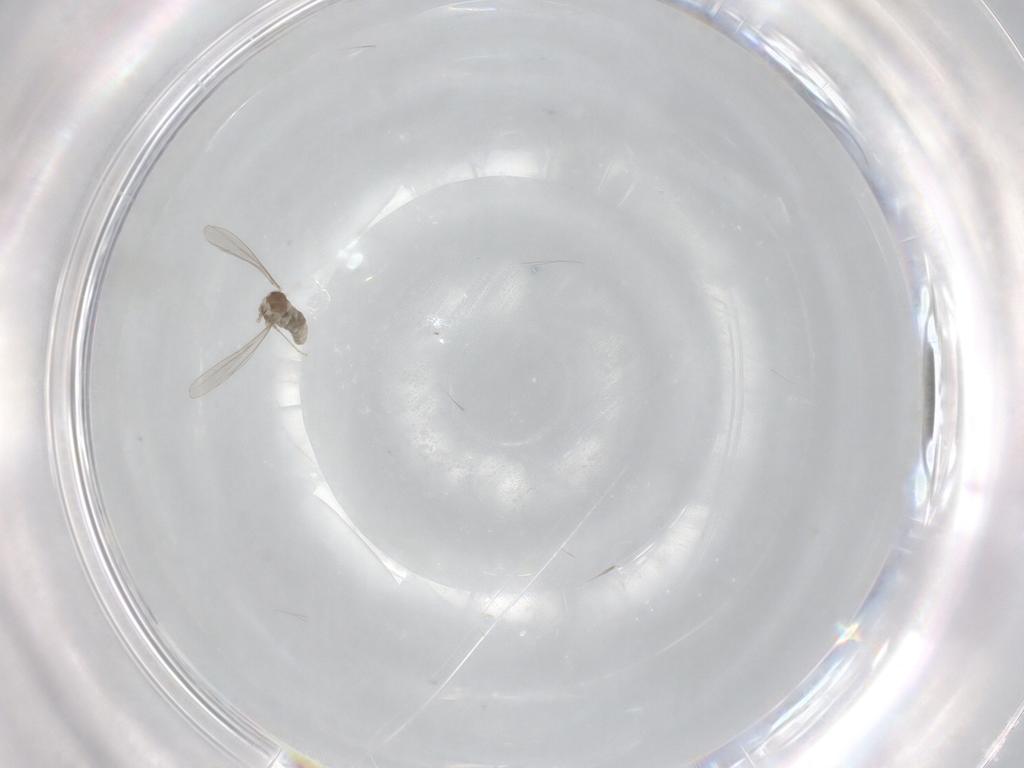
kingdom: Animalia
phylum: Arthropoda
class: Insecta
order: Diptera
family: Cecidomyiidae
